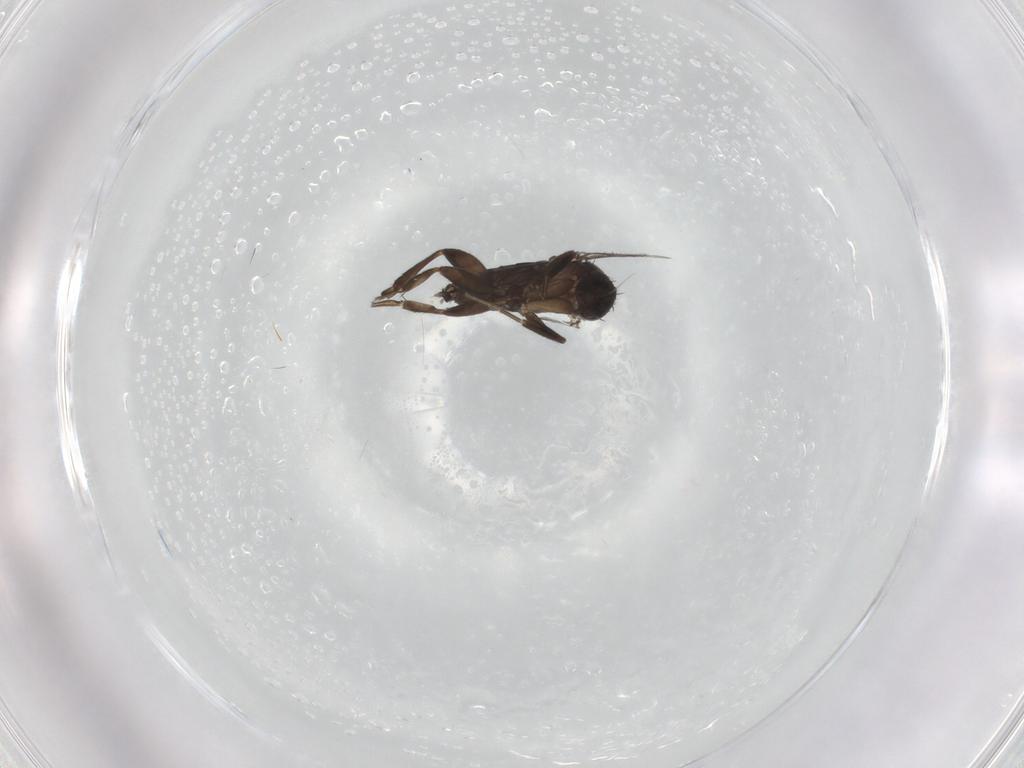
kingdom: Animalia
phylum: Arthropoda
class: Insecta
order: Diptera
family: Phoridae
